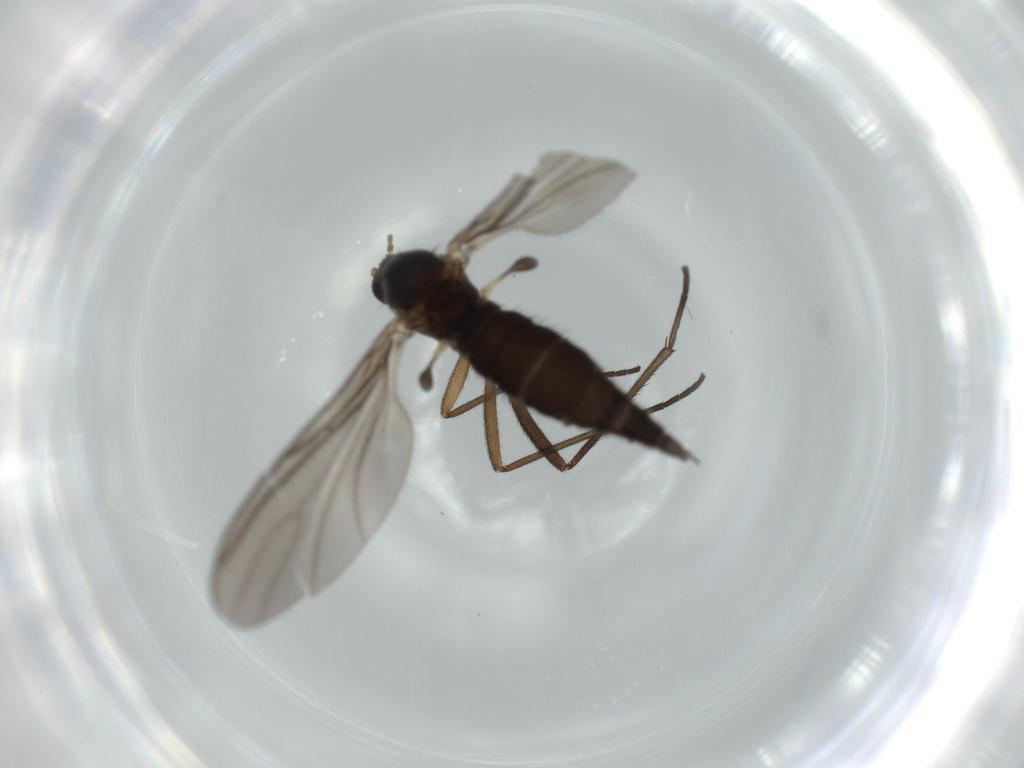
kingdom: Animalia
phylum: Arthropoda
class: Insecta
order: Diptera
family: Sciaridae
